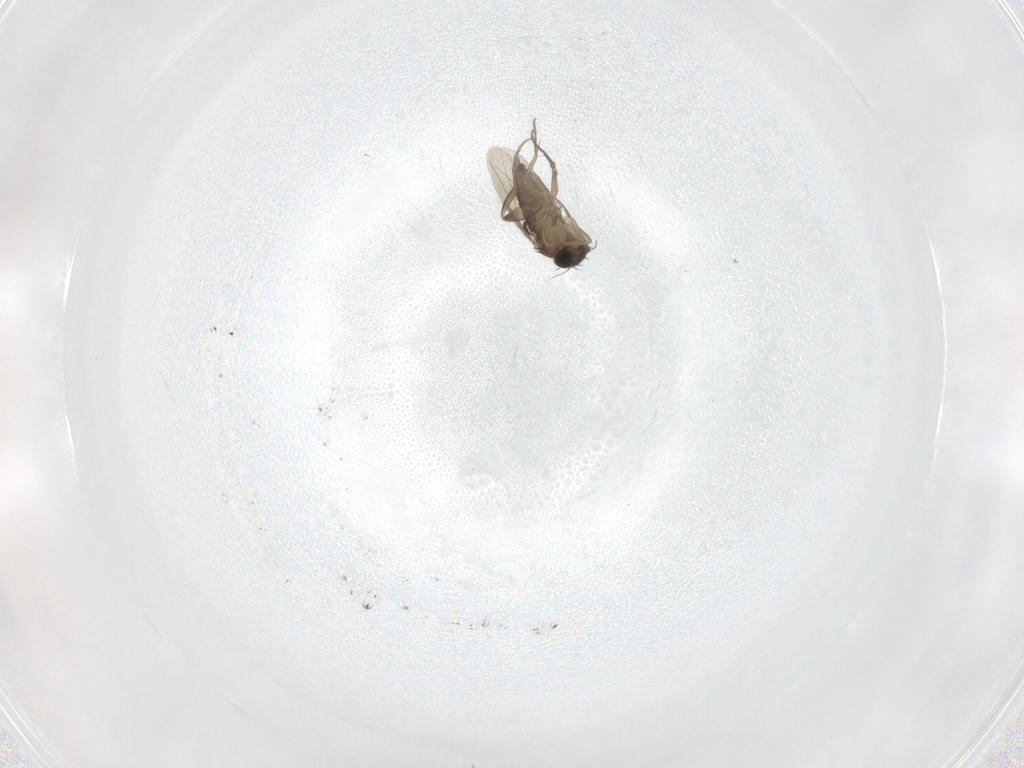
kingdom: Animalia
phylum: Arthropoda
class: Insecta
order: Diptera
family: Phoridae
